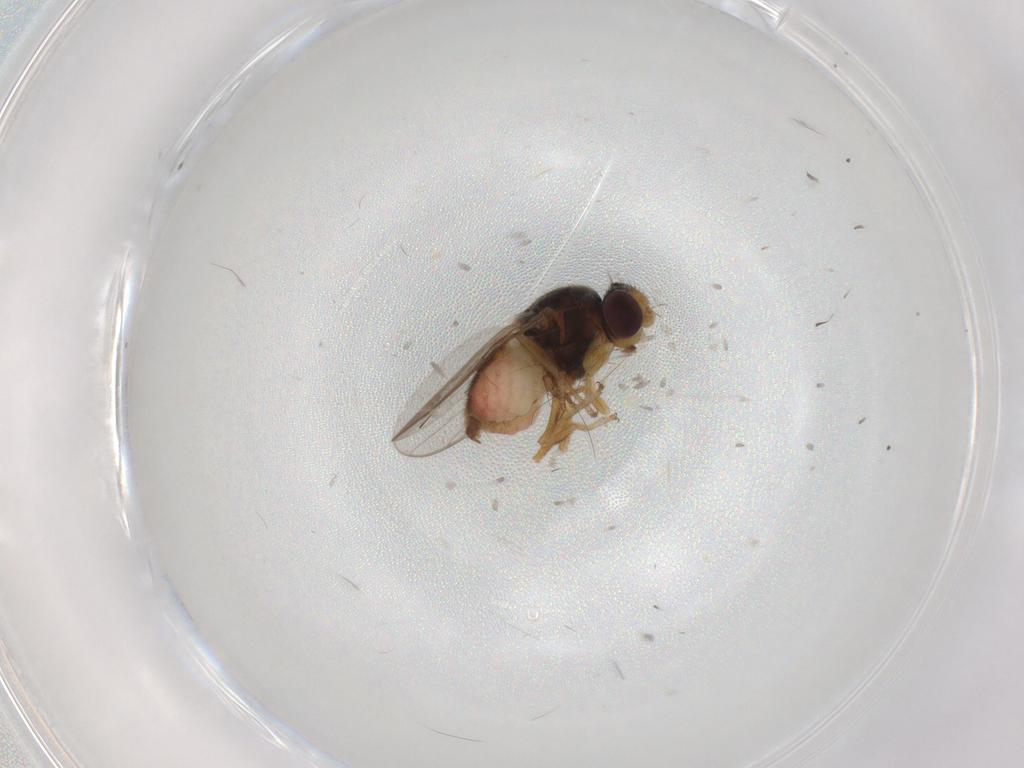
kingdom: Animalia
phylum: Arthropoda
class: Insecta
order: Diptera
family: Chloropidae
